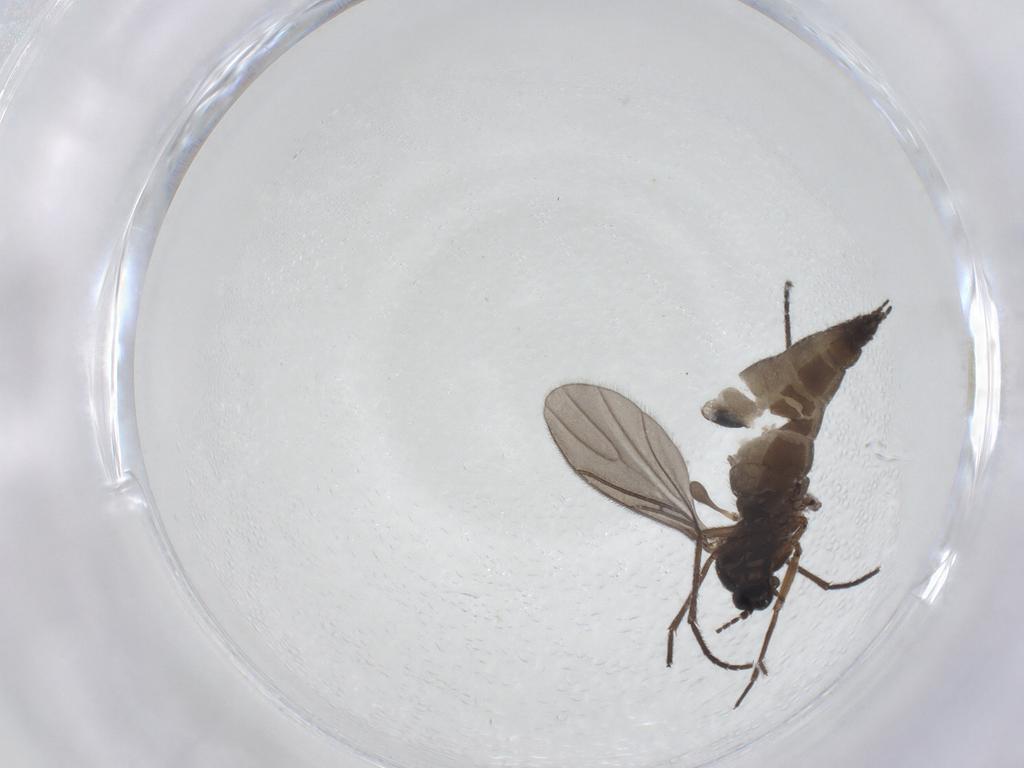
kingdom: Animalia
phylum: Arthropoda
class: Insecta
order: Diptera
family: Sciaridae
